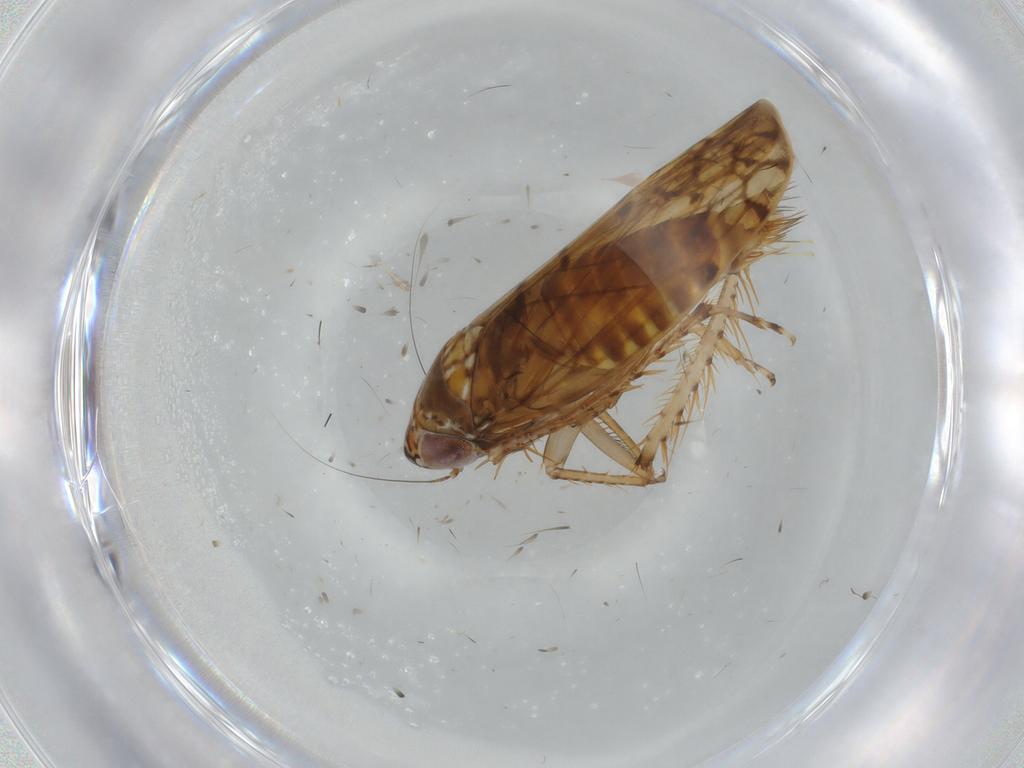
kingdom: Animalia
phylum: Arthropoda
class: Insecta
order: Hemiptera
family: Cicadellidae
